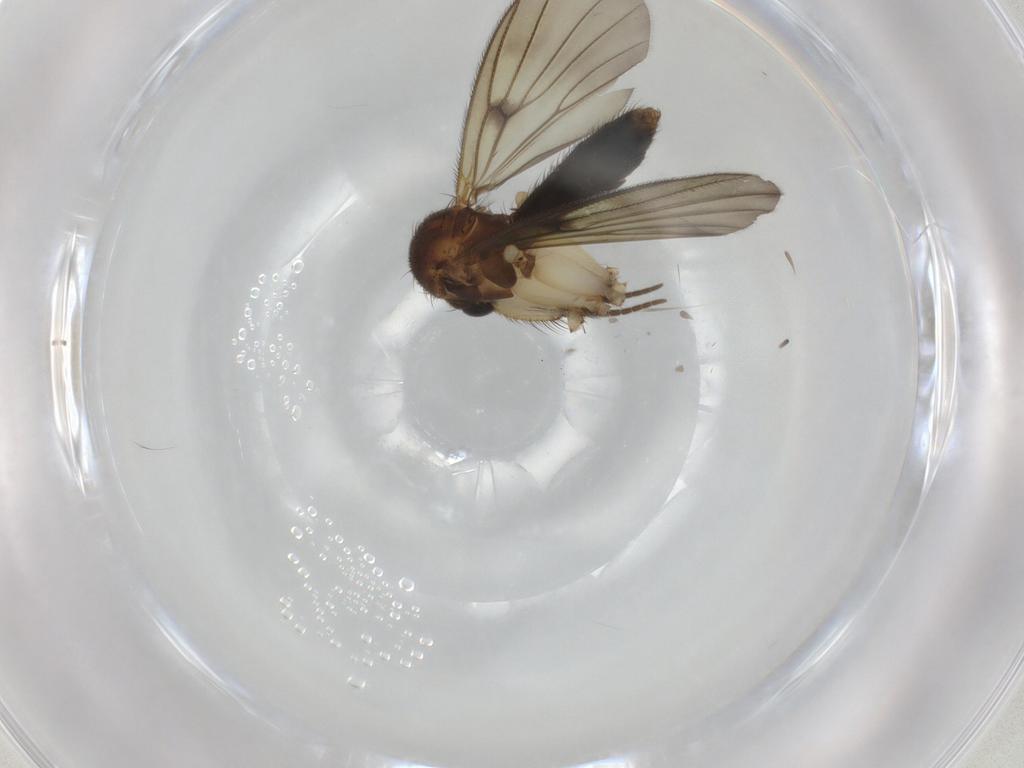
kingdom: Animalia
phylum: Arthropoda
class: Insecta
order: Diptera
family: Mycetophilidae
